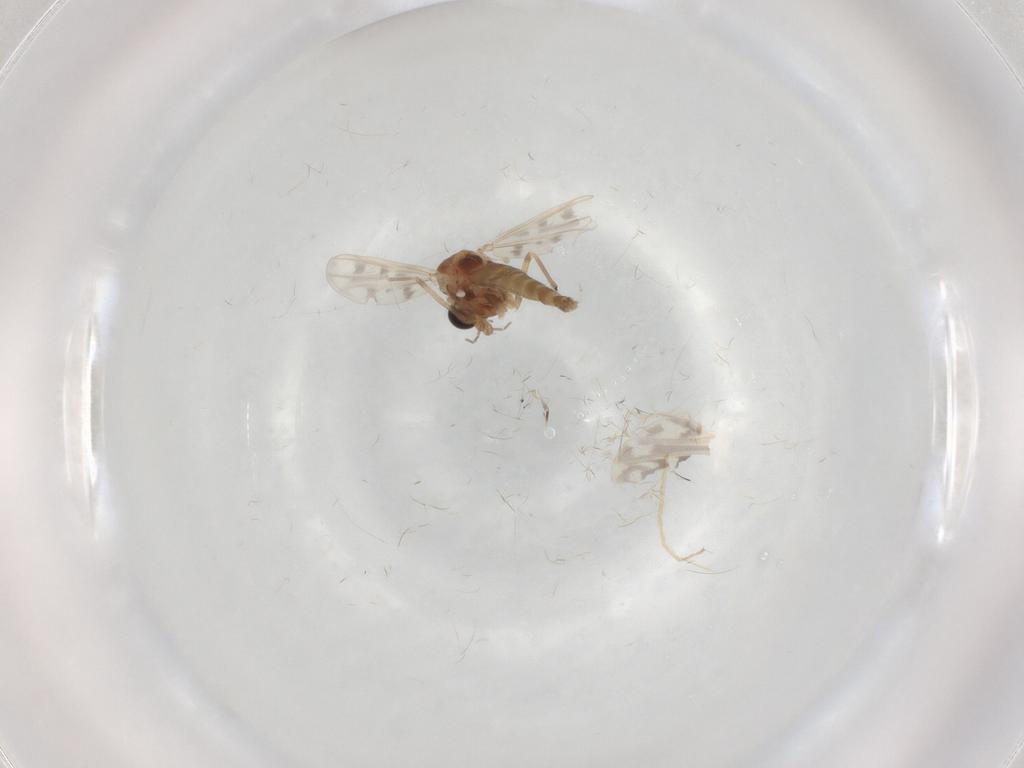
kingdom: Animalia
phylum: Arthropoda
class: Insecta
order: Diptera
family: Chironomidae
